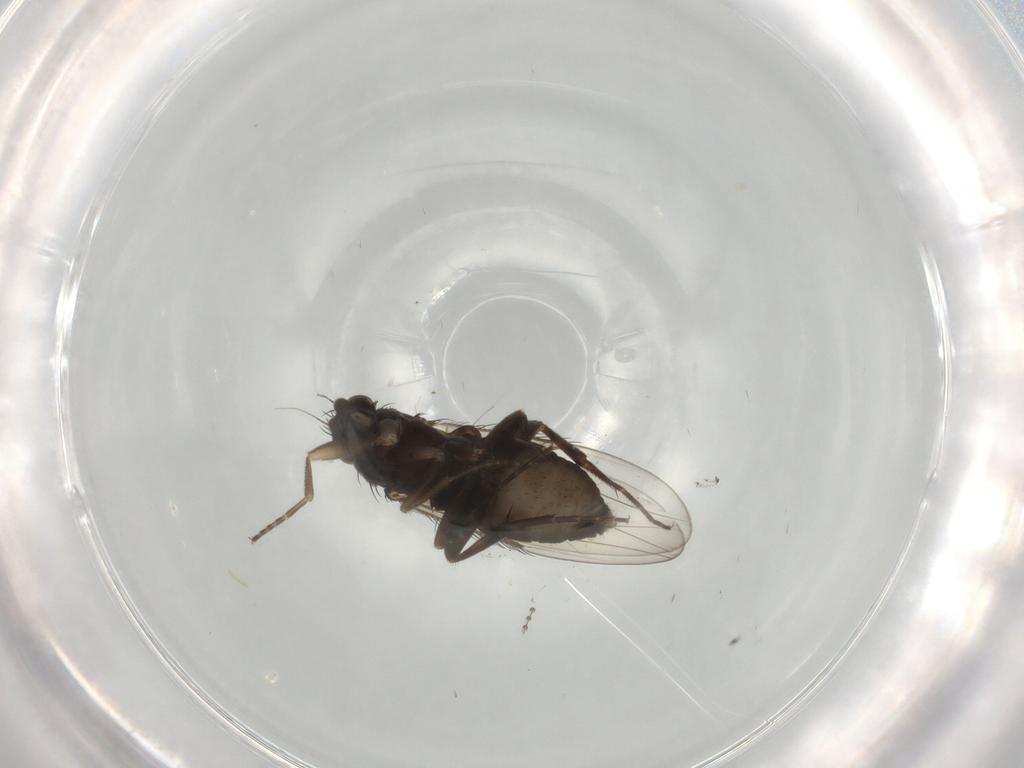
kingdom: Animalia
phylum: Arthropoda
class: Insecta
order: Diptera
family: Phoridae
